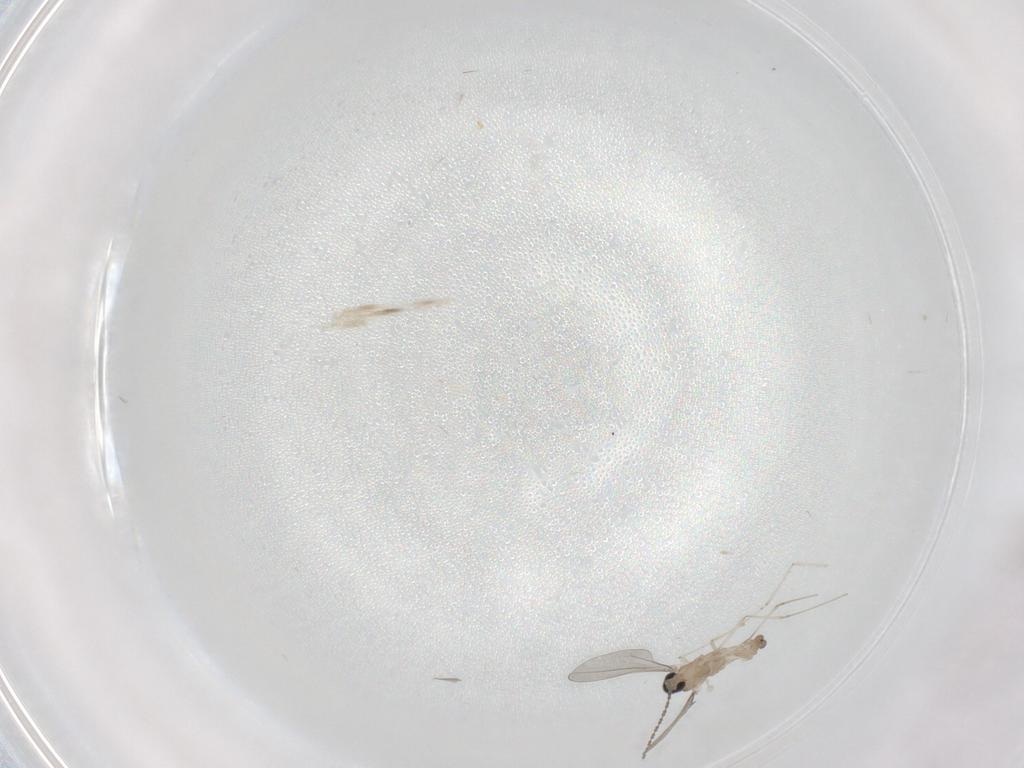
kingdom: Animalia
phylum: Arthropoda
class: Insecta
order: Diptera
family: Cecidomyiidae
